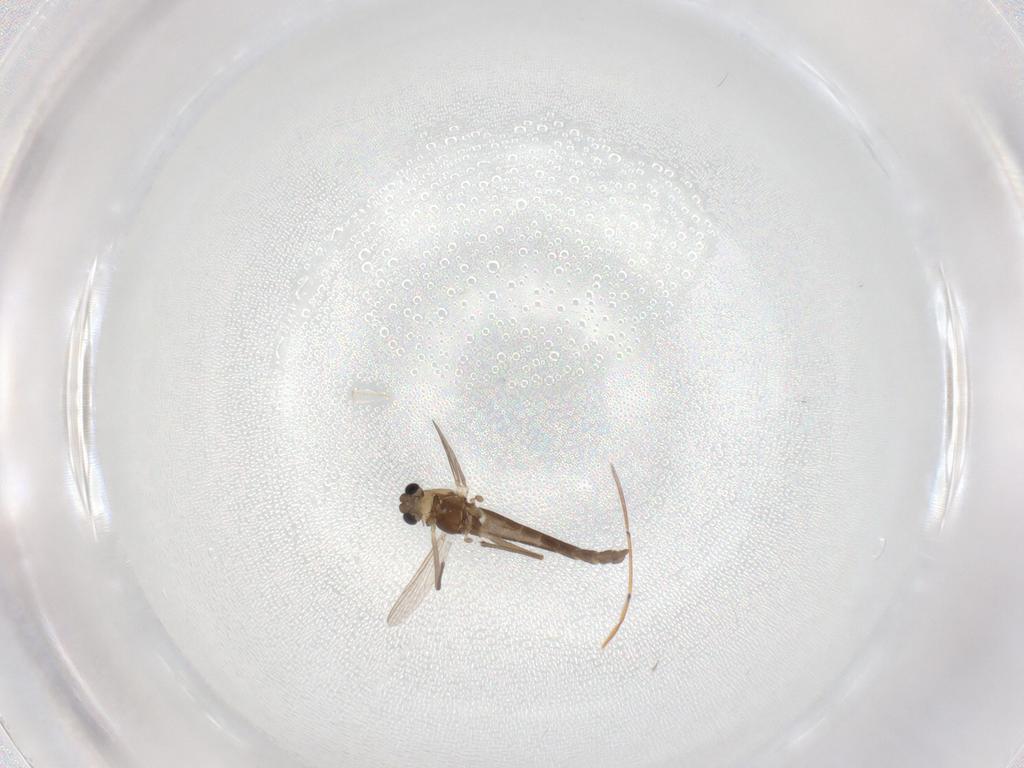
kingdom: Animalia
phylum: Arthropoda
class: Insecta
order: Diptera
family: Chironomidae
